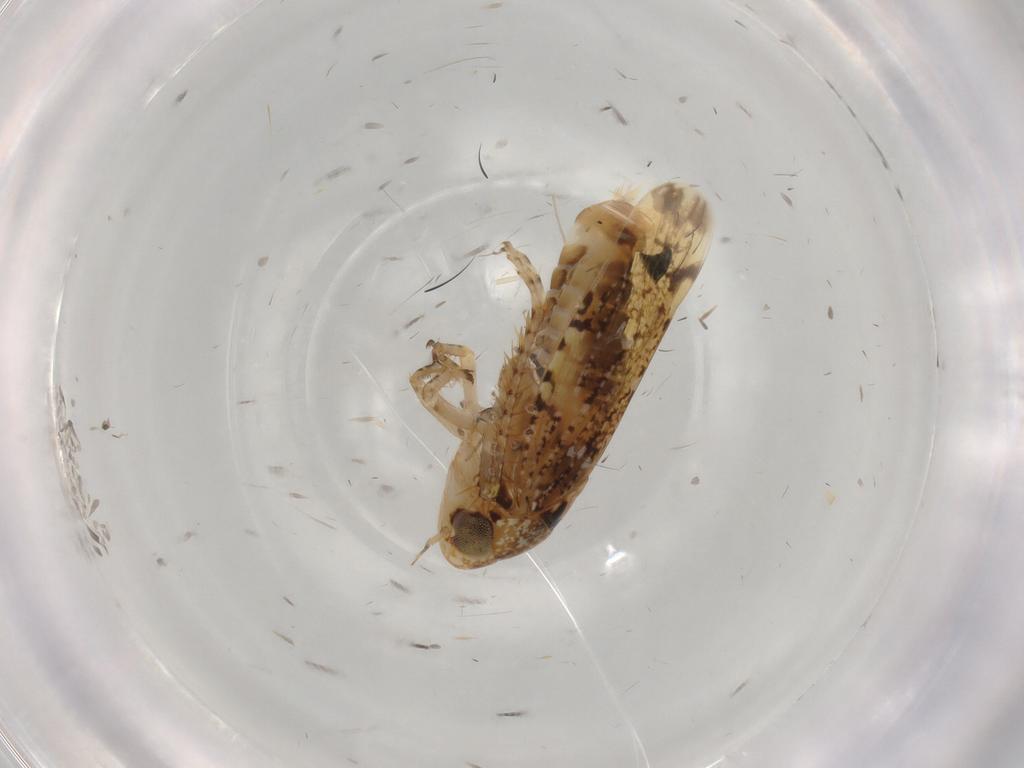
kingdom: Animalia
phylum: Arthropoda
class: Insecta
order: Hemiptera
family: Cicadellidae
